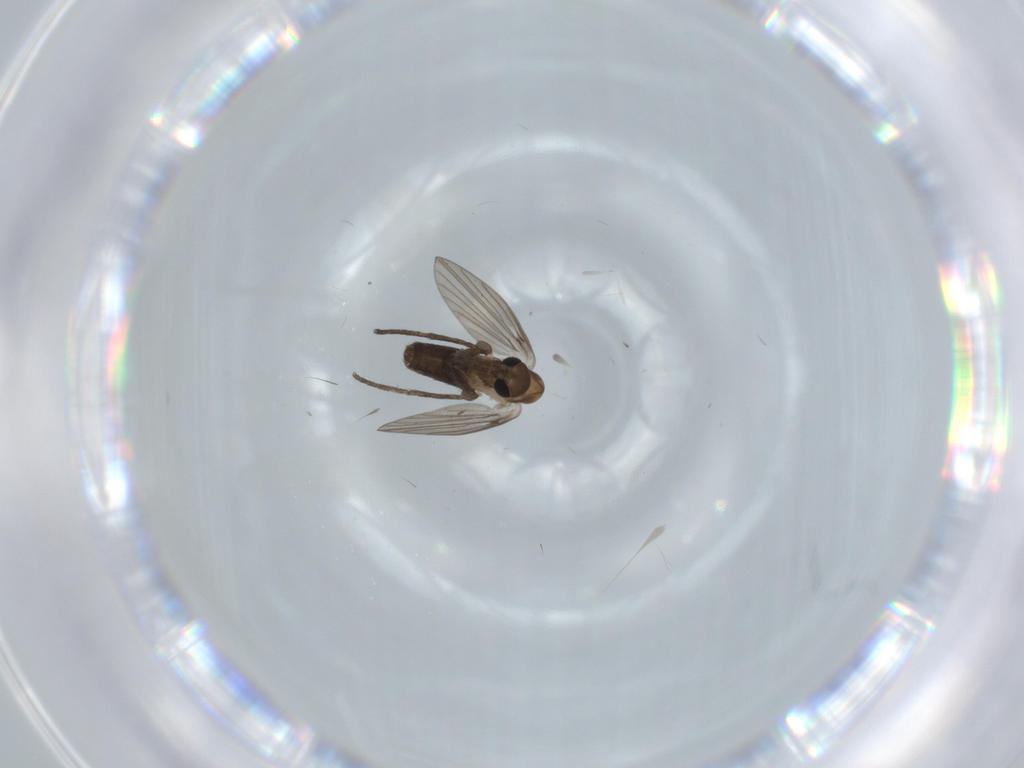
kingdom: Animalia
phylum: Arthropoda
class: Insecta
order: Diptera
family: Psychodidae
